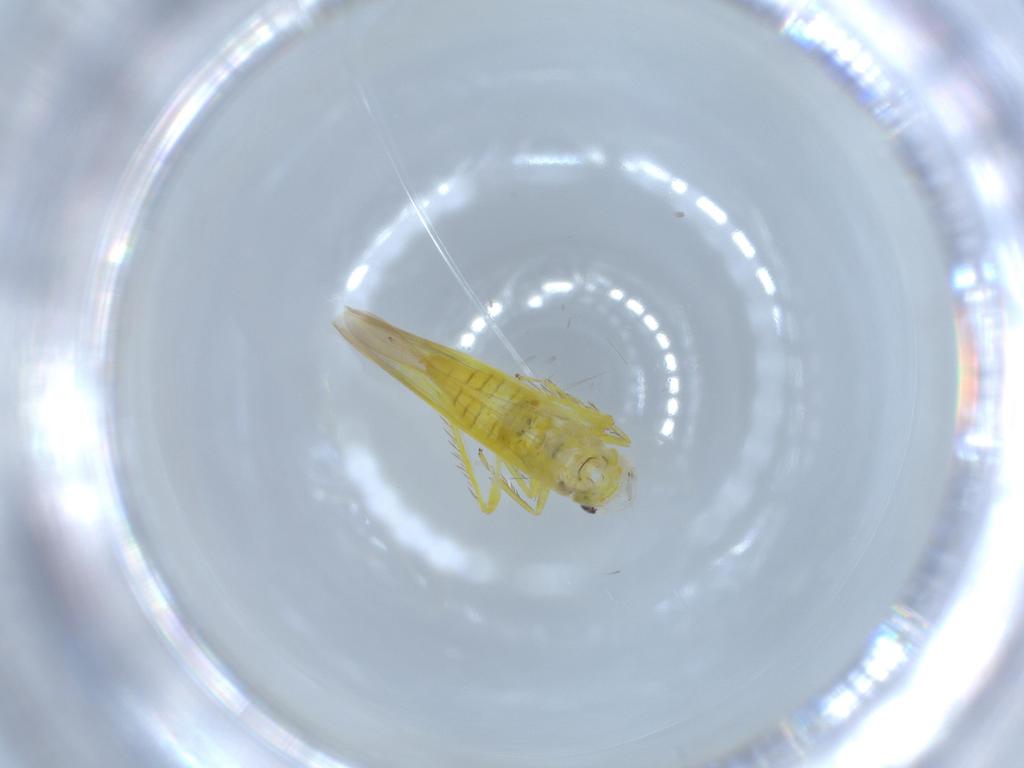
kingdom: Animalia
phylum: Arthropoda
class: Insecta
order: Hemiptera
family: Cicadellidae
